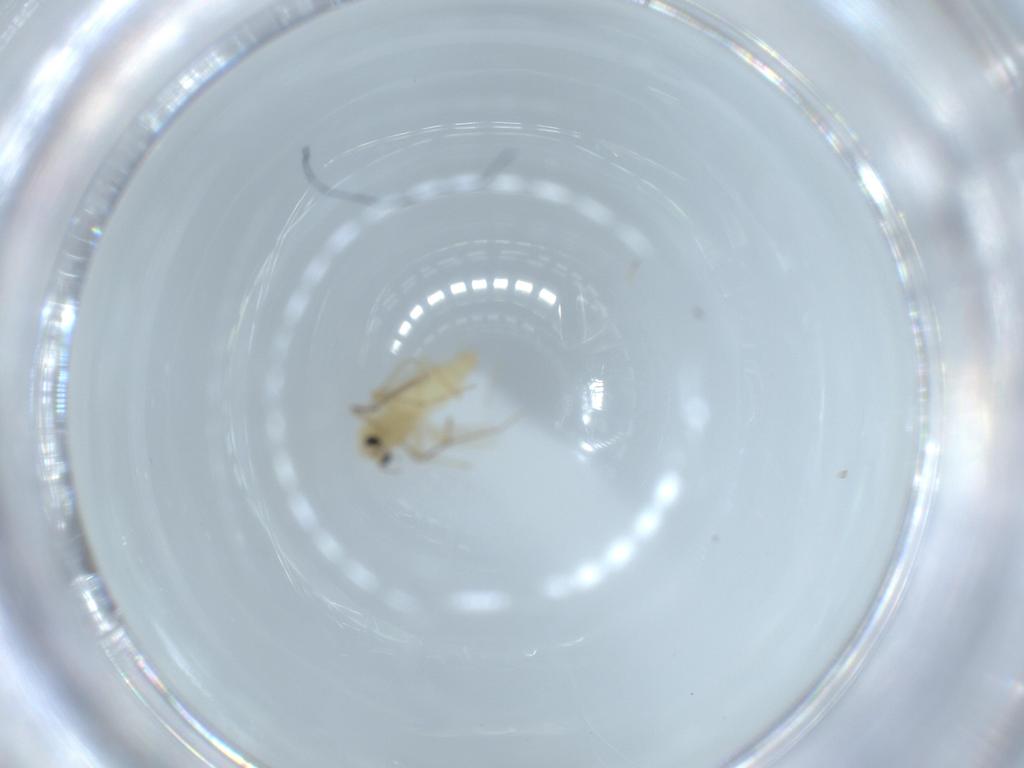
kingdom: Animalia
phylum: Arthropoda
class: Insecta
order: Diptera
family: Chironomidae
